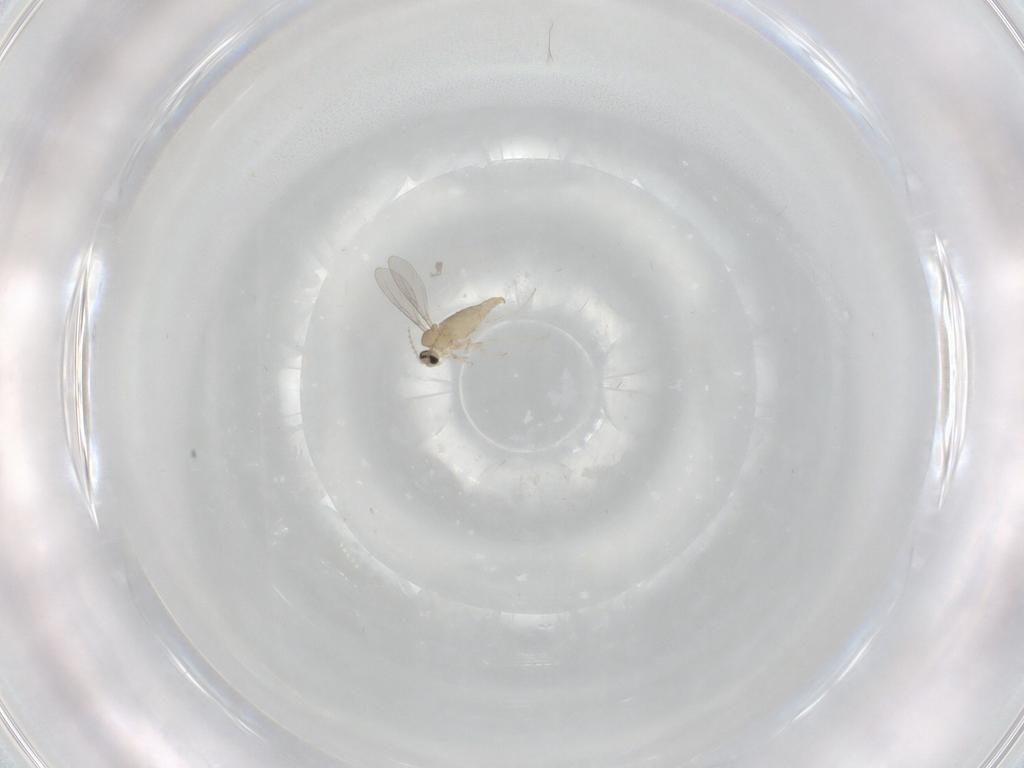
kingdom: Animalia
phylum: Arthropoda
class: Insecta
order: Diptera
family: Cecidomyiidae
